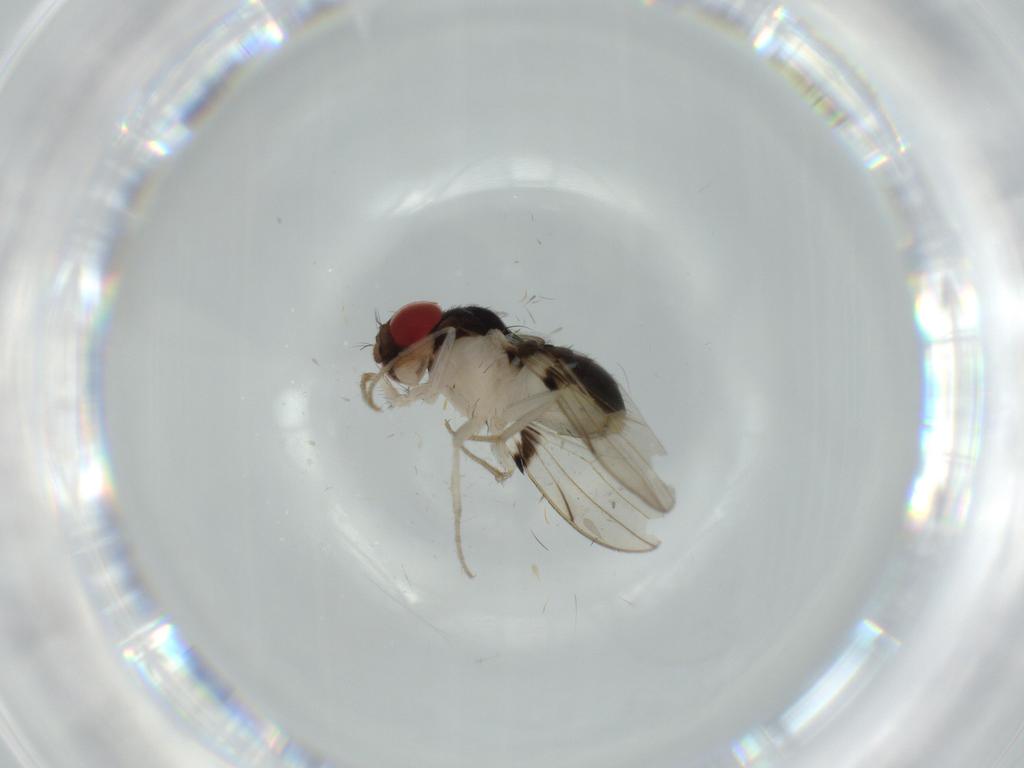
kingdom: Animalia
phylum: Arthropoda
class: Insecta
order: Diptera
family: Drosophilidae
